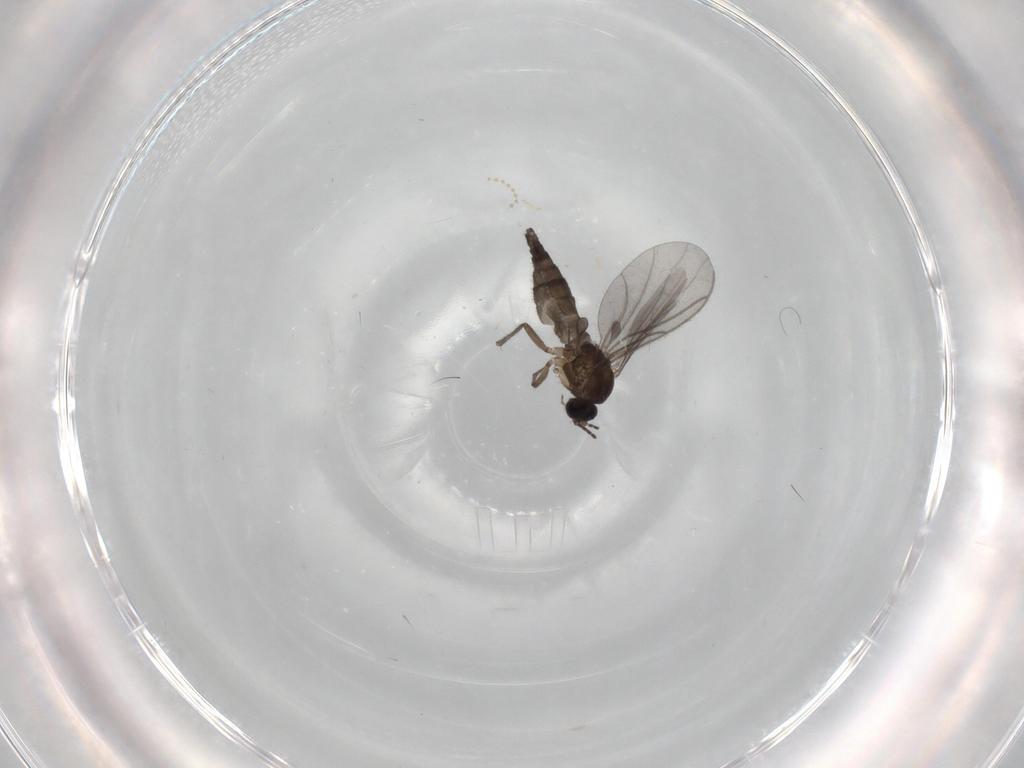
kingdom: Animalia
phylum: Arthropoda
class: Insecta
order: Diptera
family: Sciaridae
